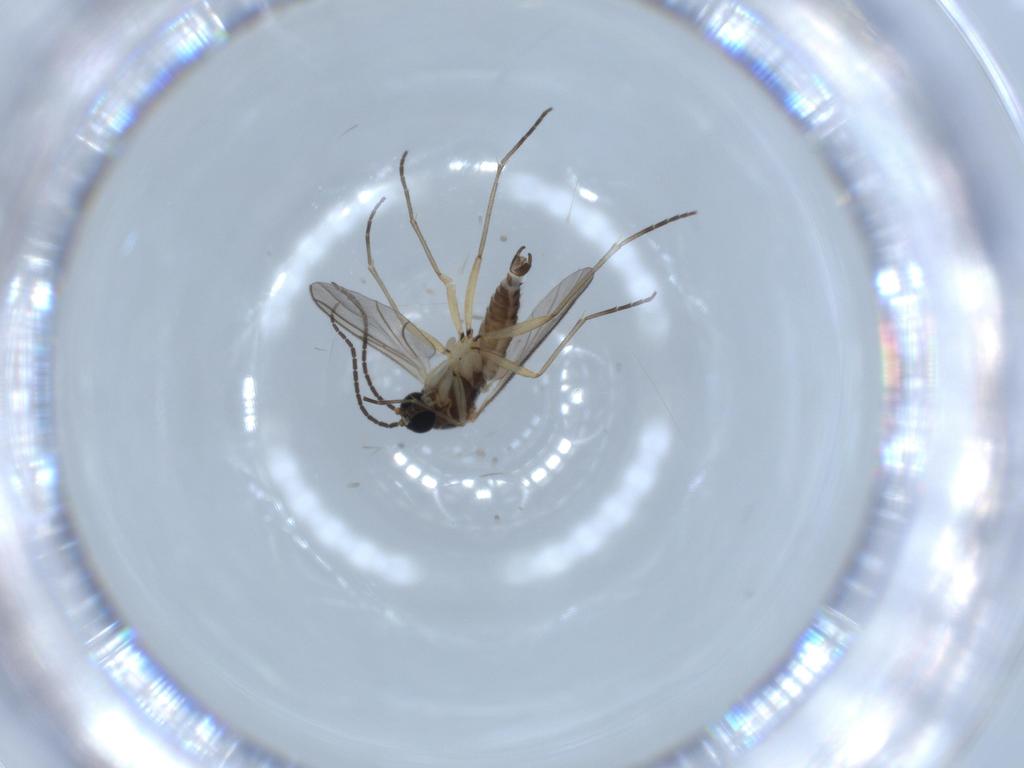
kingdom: Animalia
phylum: Arthropoda
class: Insecta
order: Diptera
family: Sciaridae
